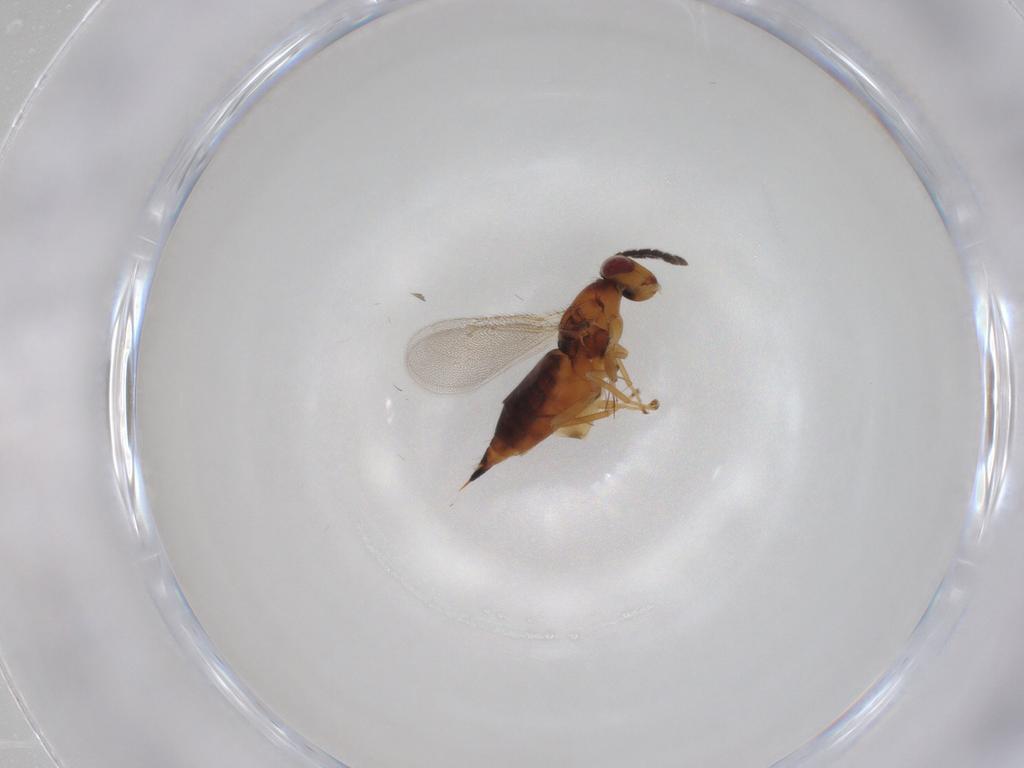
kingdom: Animalia
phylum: Arthropoda
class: Insecta
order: Hymenoptera
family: Eulophidae
